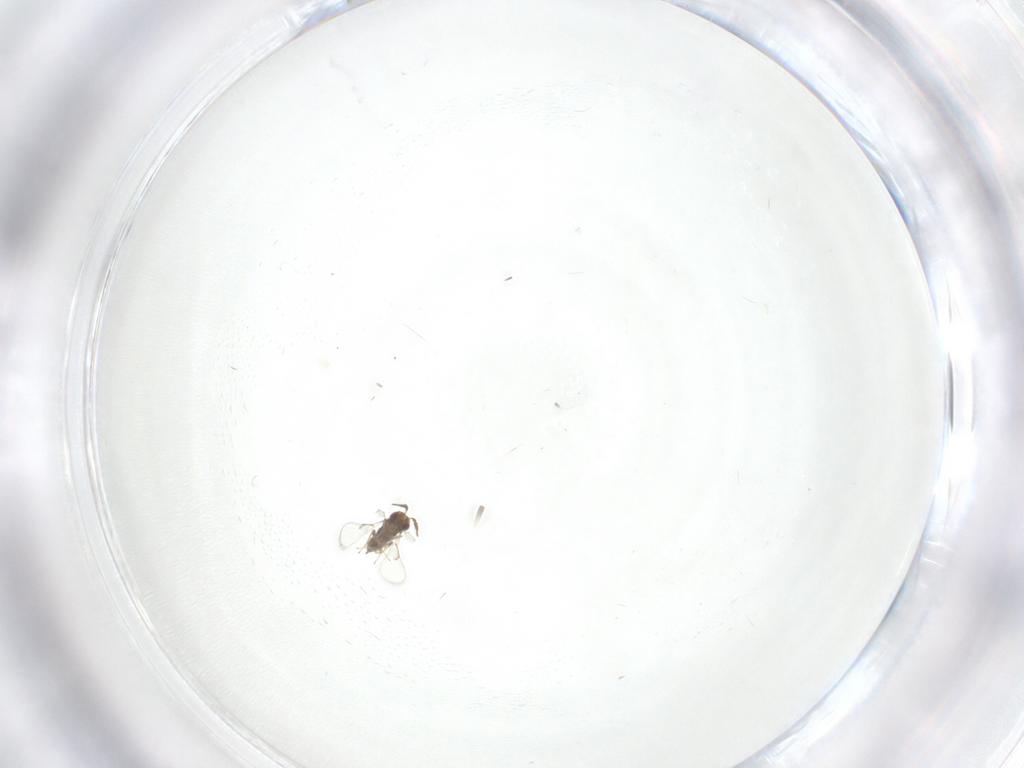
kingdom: Animalia
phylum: Arthropoda
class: Insecta
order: Hymenoptera
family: Trichogrammatidae
